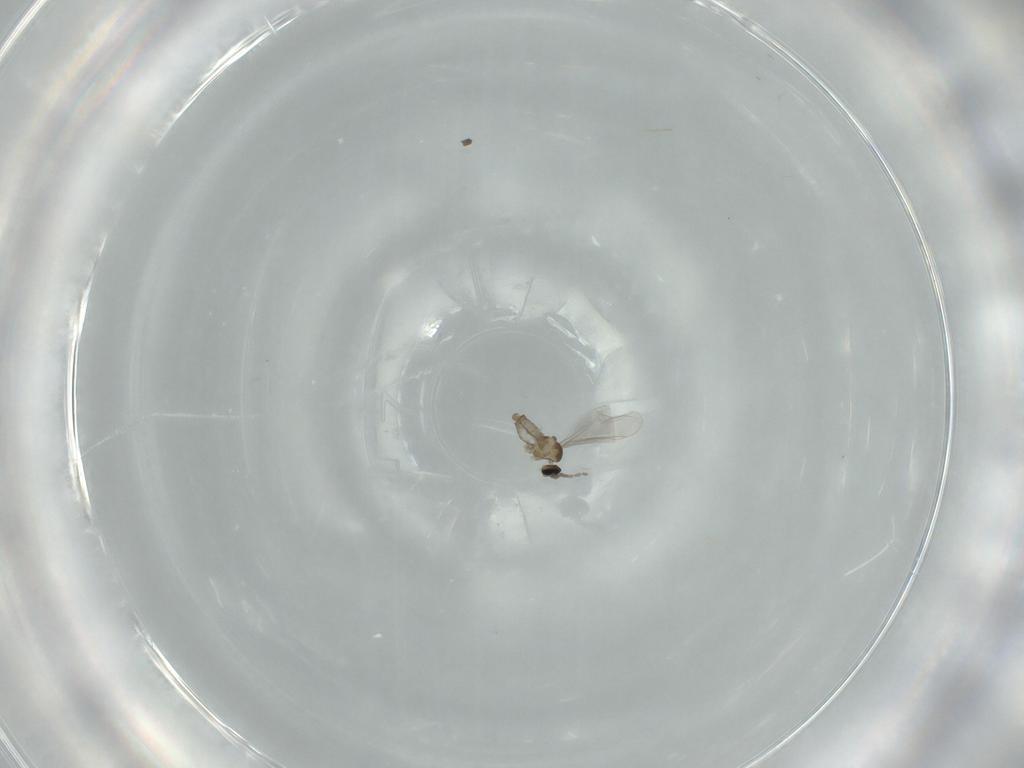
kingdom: Animalia
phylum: Arthropoda
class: Insecta
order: Diptera
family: Cecidomyiidae
